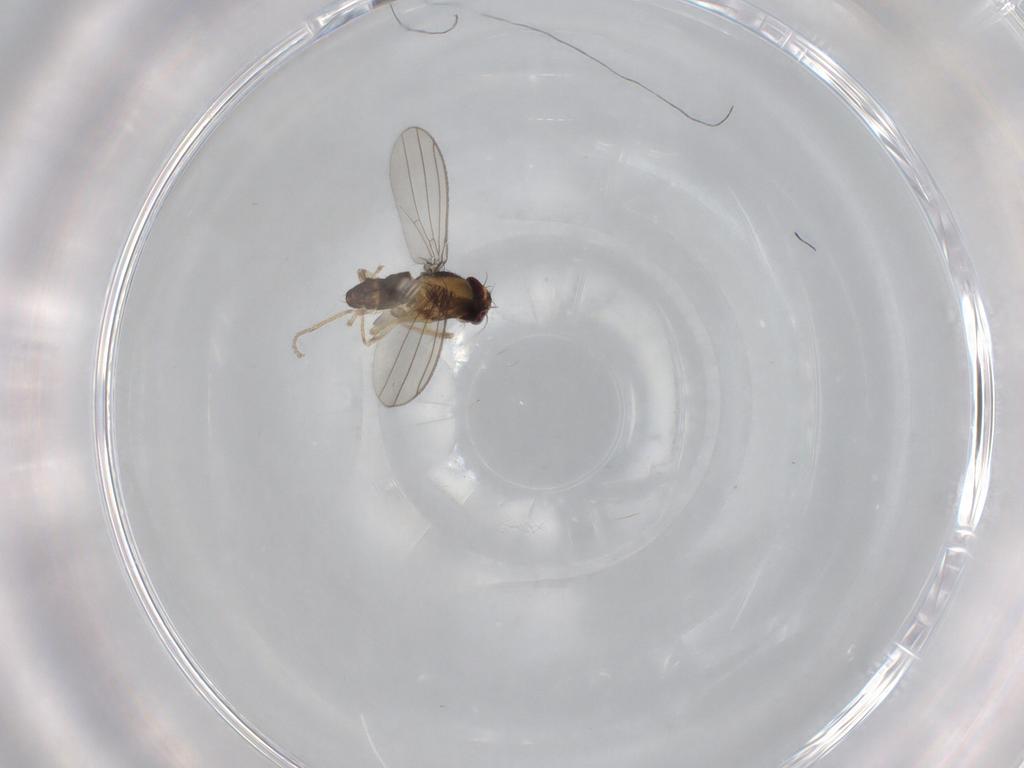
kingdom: Animalia
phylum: Arthropoda
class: Insecta
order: Diptera
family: Anthomyzidae
